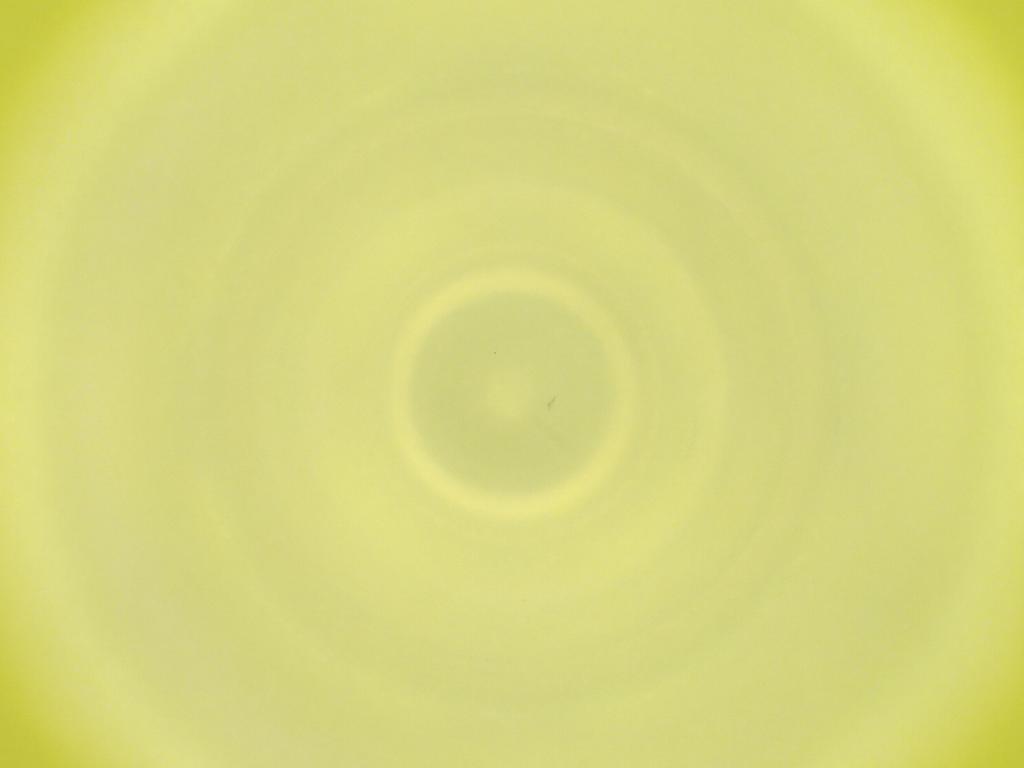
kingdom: Animalia
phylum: Arthropoda
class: Insecta
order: Diptera
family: Cecidomyiidae
